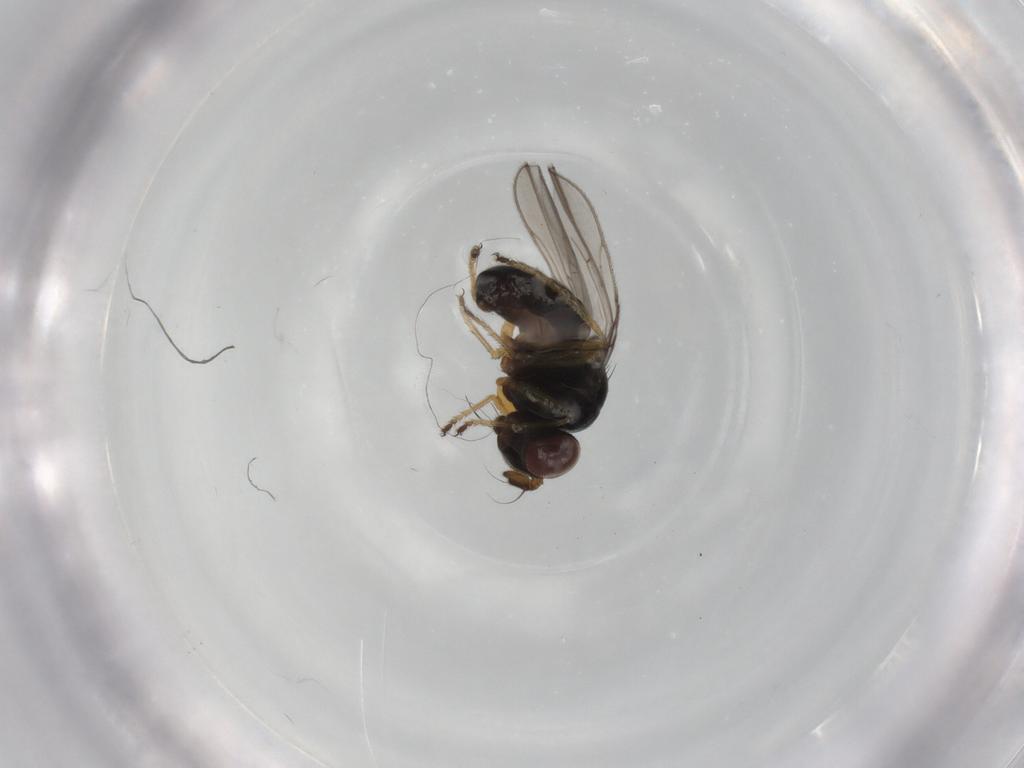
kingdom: Animalia
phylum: Arthropoda
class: Insecta
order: Diptera
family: Ephydridae
